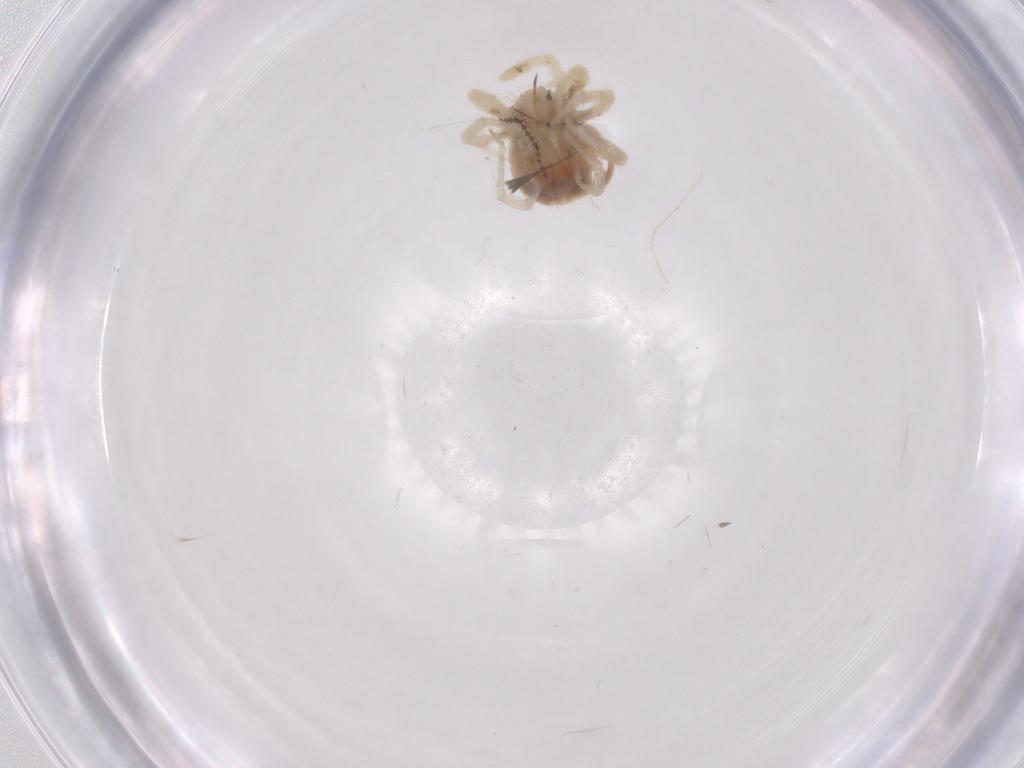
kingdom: Animalia
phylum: Arthropoda
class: Arachnida
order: Trombidiformes
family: Anystidae
